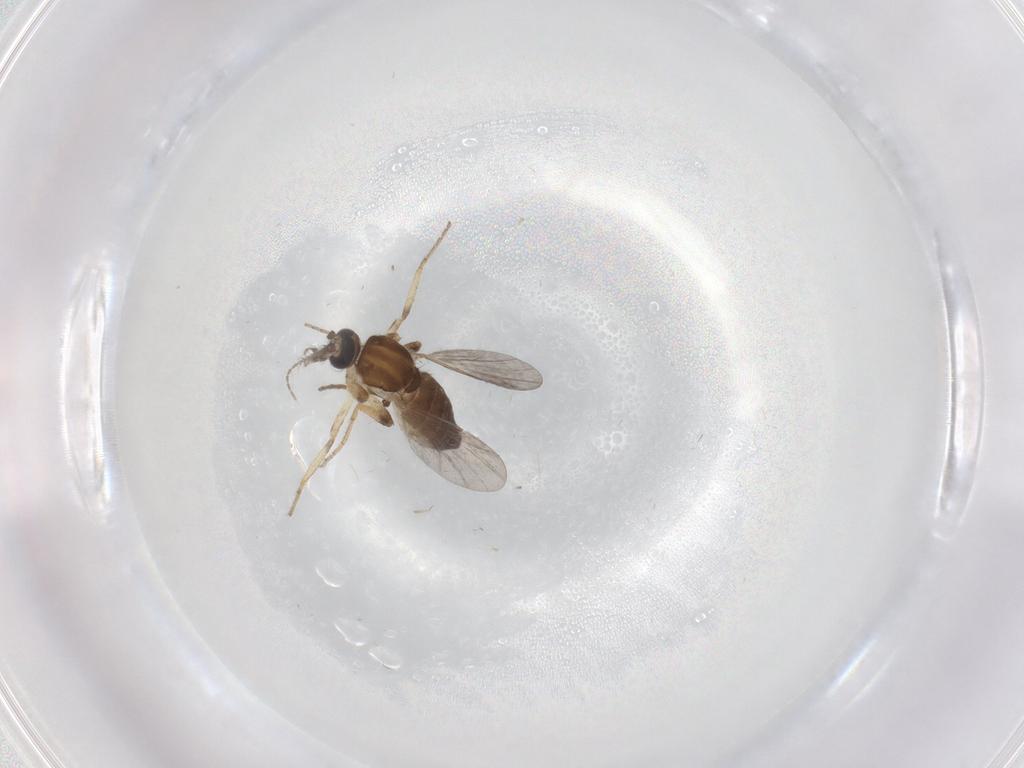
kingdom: Animalia
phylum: Arthropoda
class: Insecta
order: Diptera
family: Ceratopogonidae
